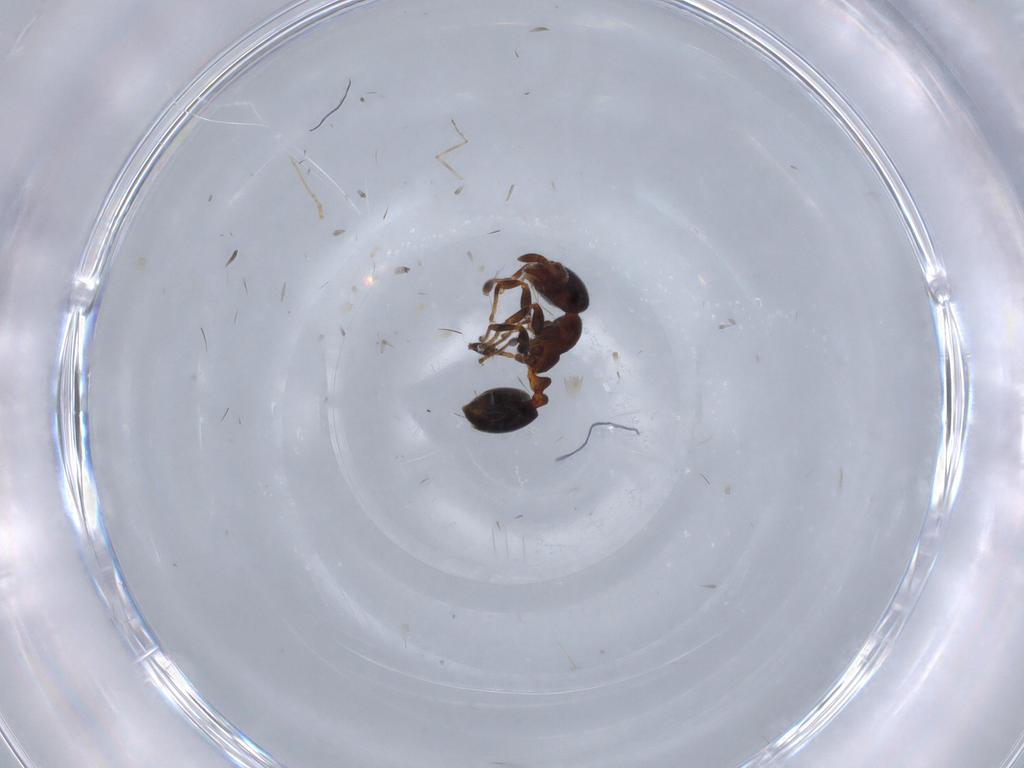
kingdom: Animalia
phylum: Arthropoda
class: Insecta
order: Hymenoptera
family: Formicidae
